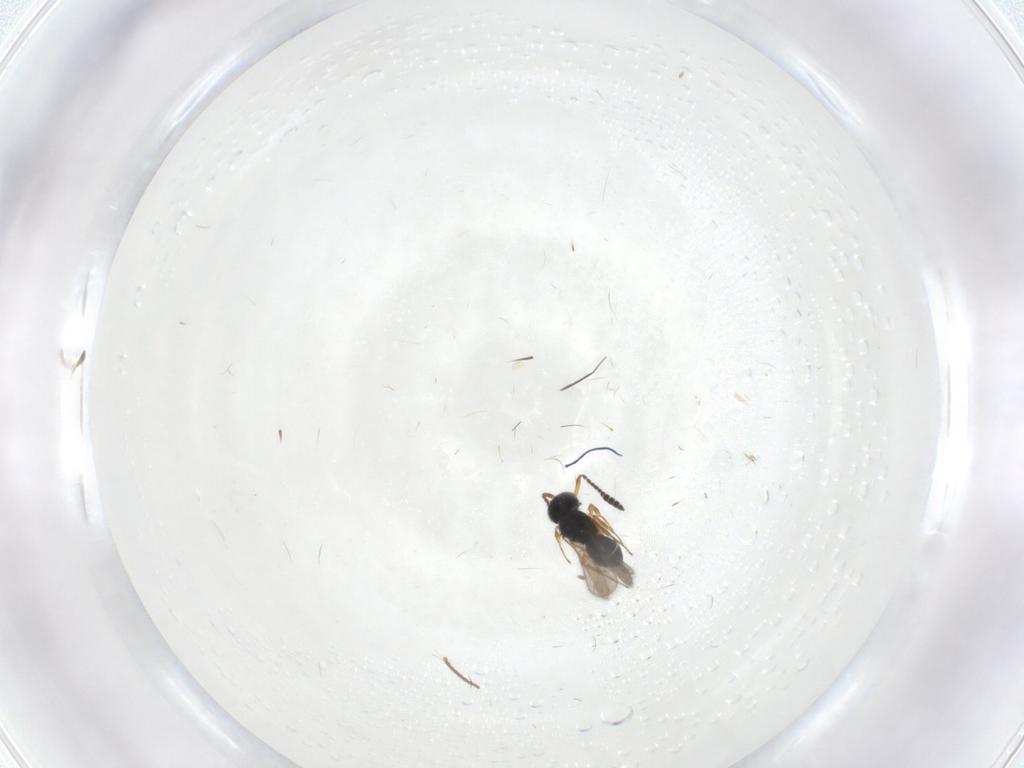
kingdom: Animalia
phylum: Arthropoda
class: Insecta
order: Hymenoptera
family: Scelionidae
